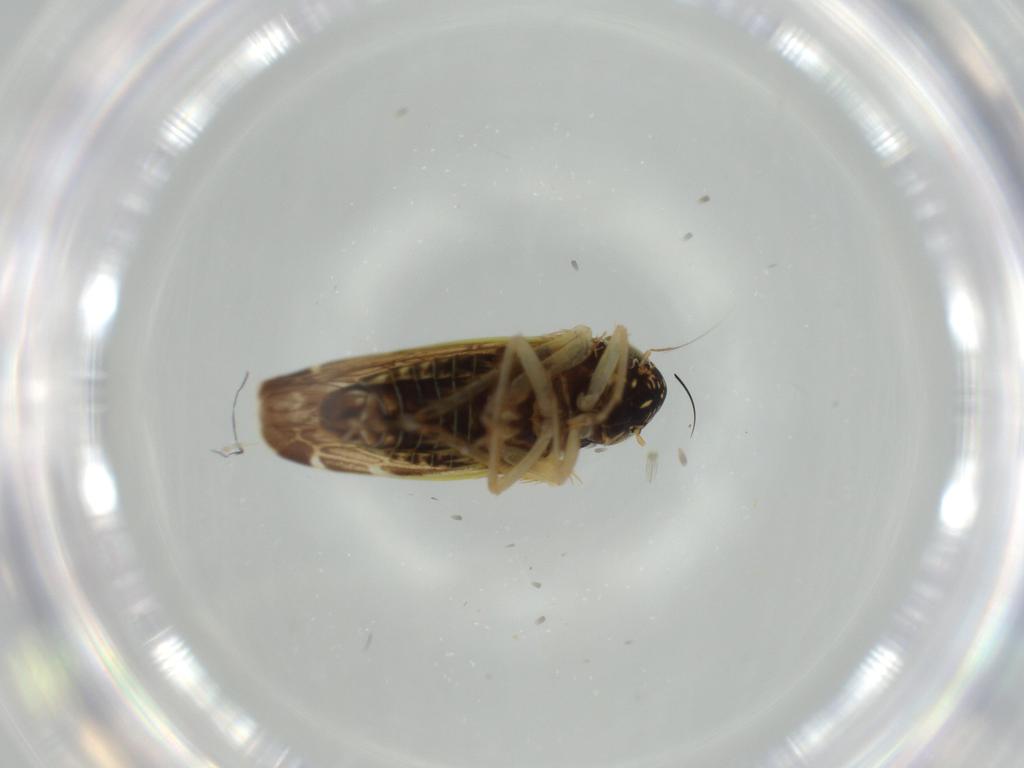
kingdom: Animalia
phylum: Arthropoda
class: Insecta
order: Hemiptera
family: Cicadellidae
